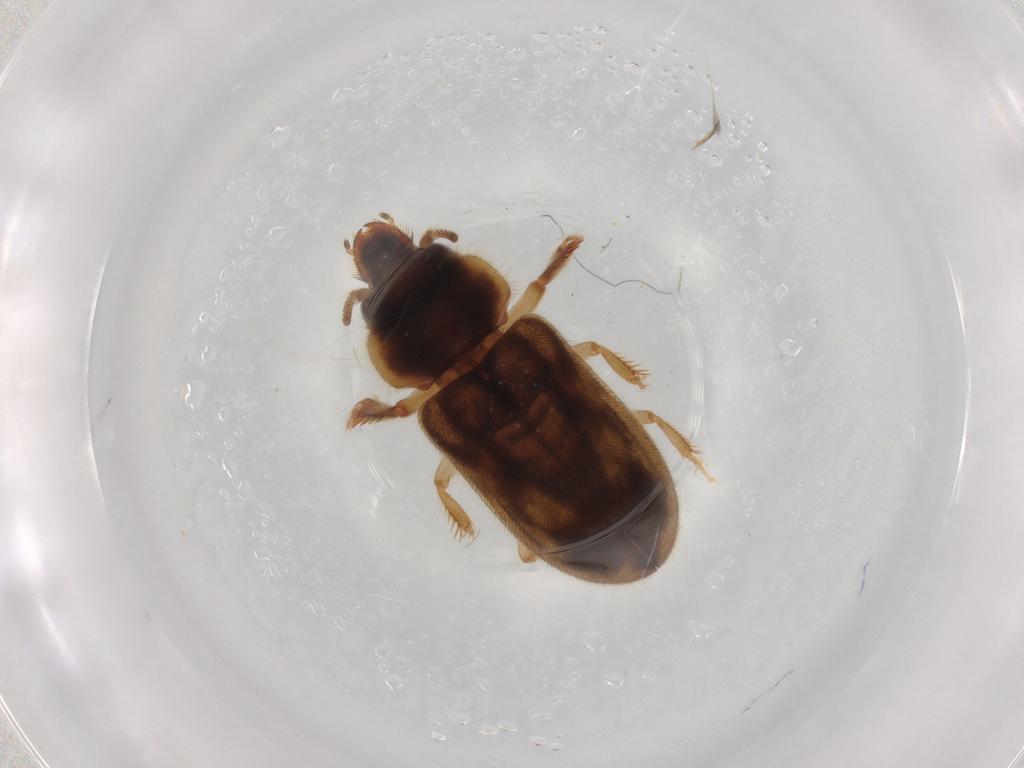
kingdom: Animalia
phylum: Arthropoda
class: Insecta
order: Coleoptera
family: Heteroceridae
